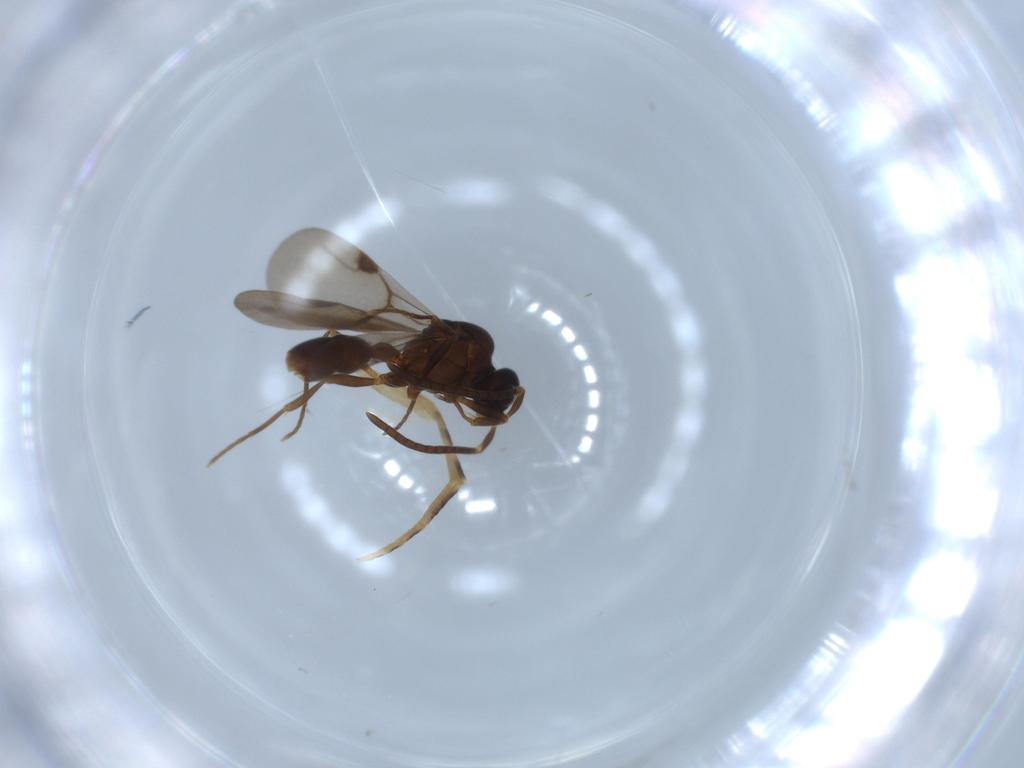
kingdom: Animalia
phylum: Arthropoda
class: Insecta
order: Hymenoptera
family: Formicidae
